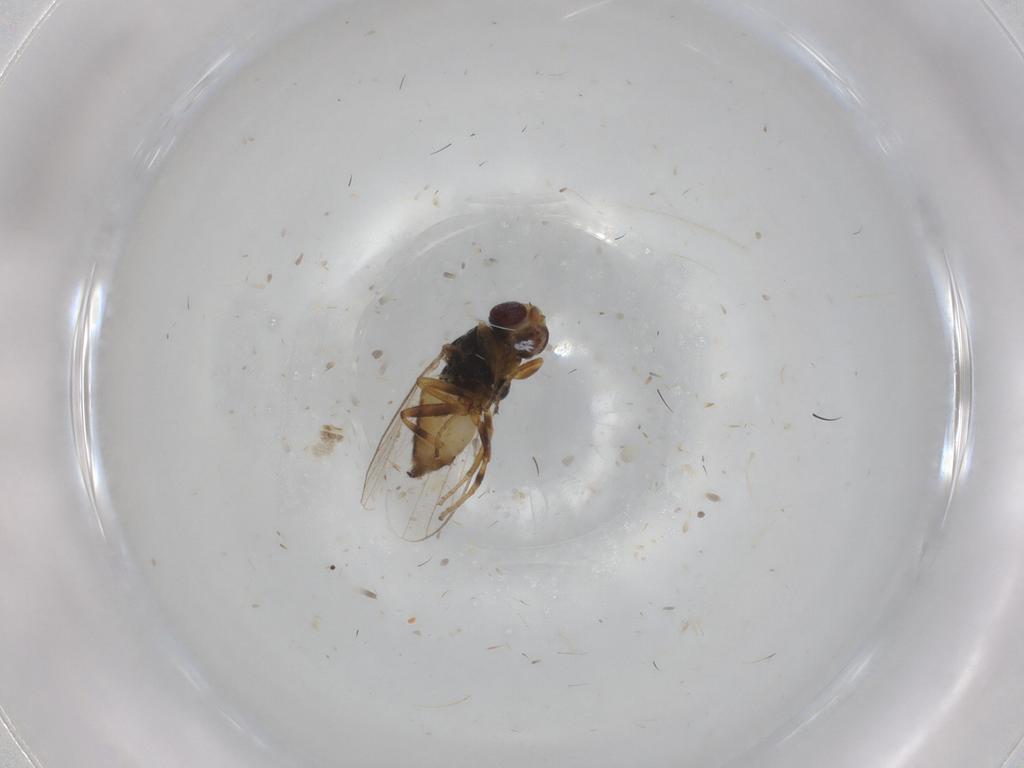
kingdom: Animalia
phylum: Arthropoda
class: Insecta
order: Diptera
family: Chloropidae
